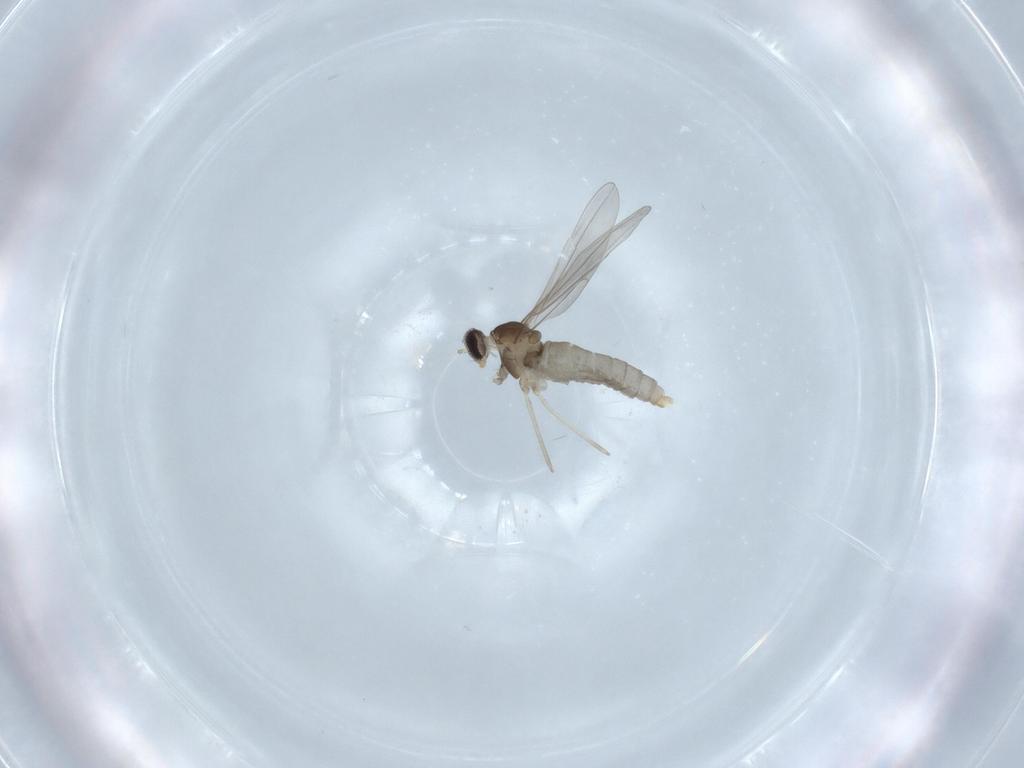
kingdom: Animalia
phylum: Arthropoda
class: Insecta
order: Diptera
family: Cecidomyiidae
